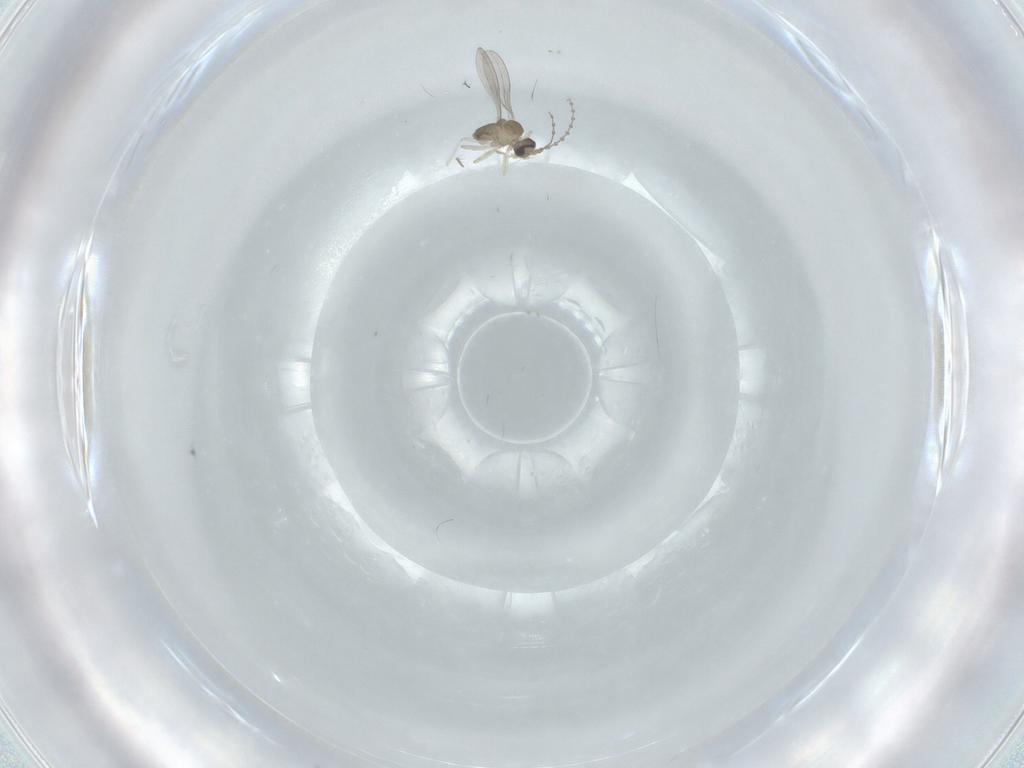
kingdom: Animalia
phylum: Arthropoda
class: Insecta
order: Diptera
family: Cecidomyiidae
